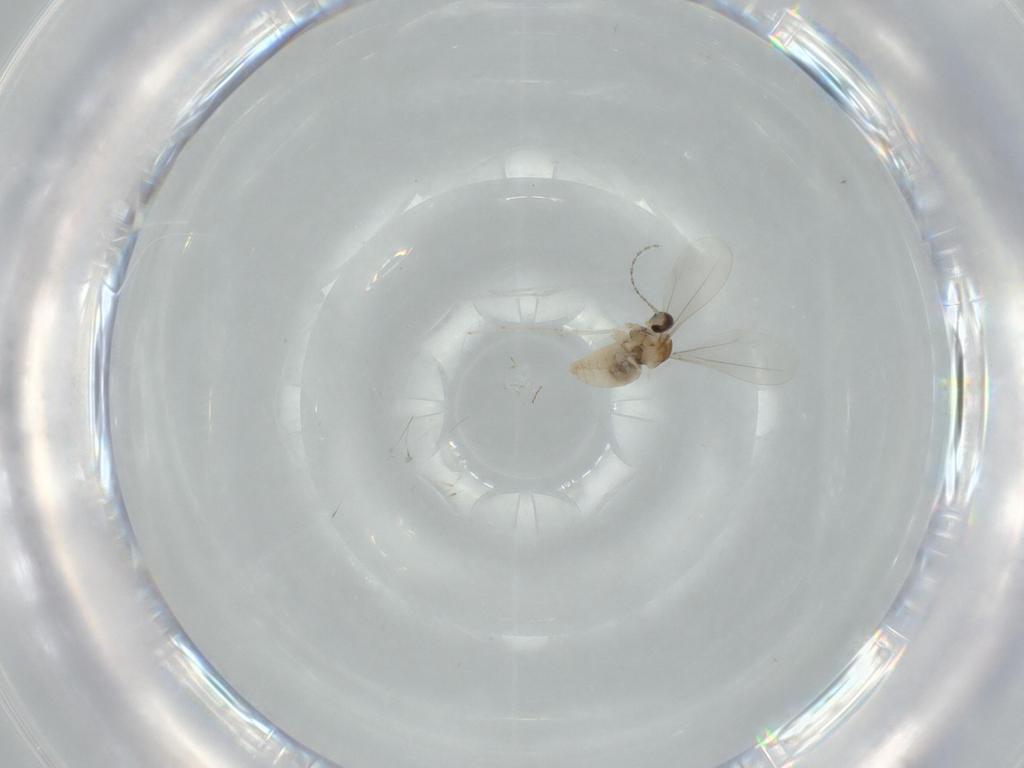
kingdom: Animalia
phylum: Arthropoda
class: Insecta
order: Diptera
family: Cecidomyiidae
